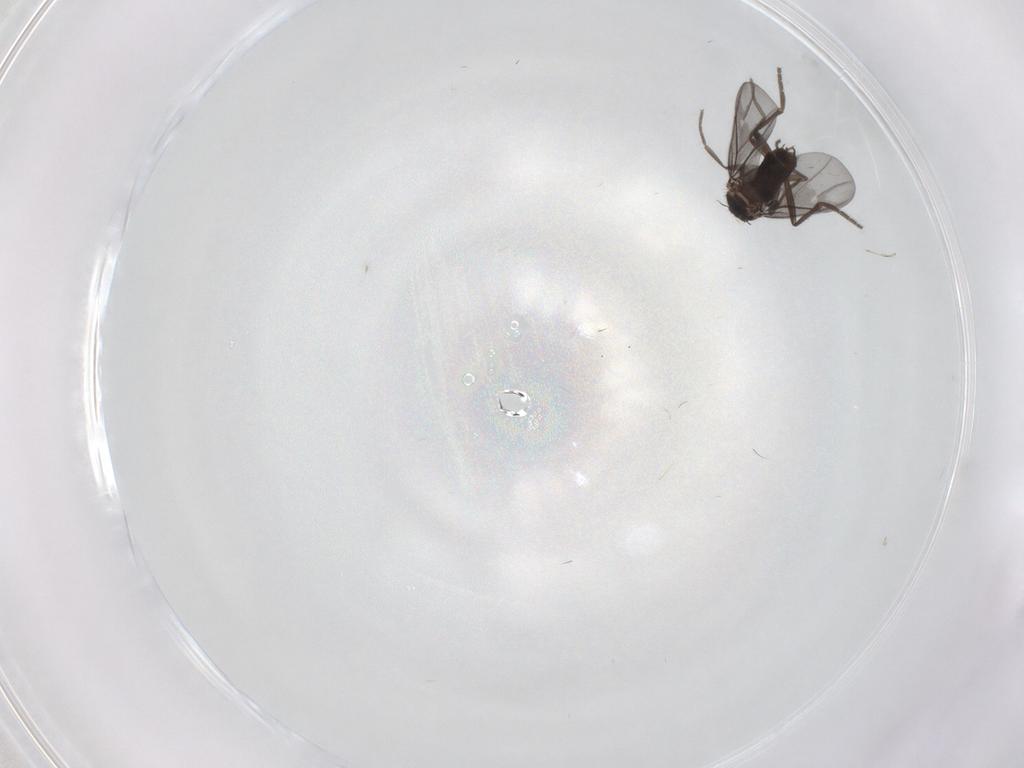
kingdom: Animalia
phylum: Arthropoda
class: Insecta
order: Diptera
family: Phoridae
